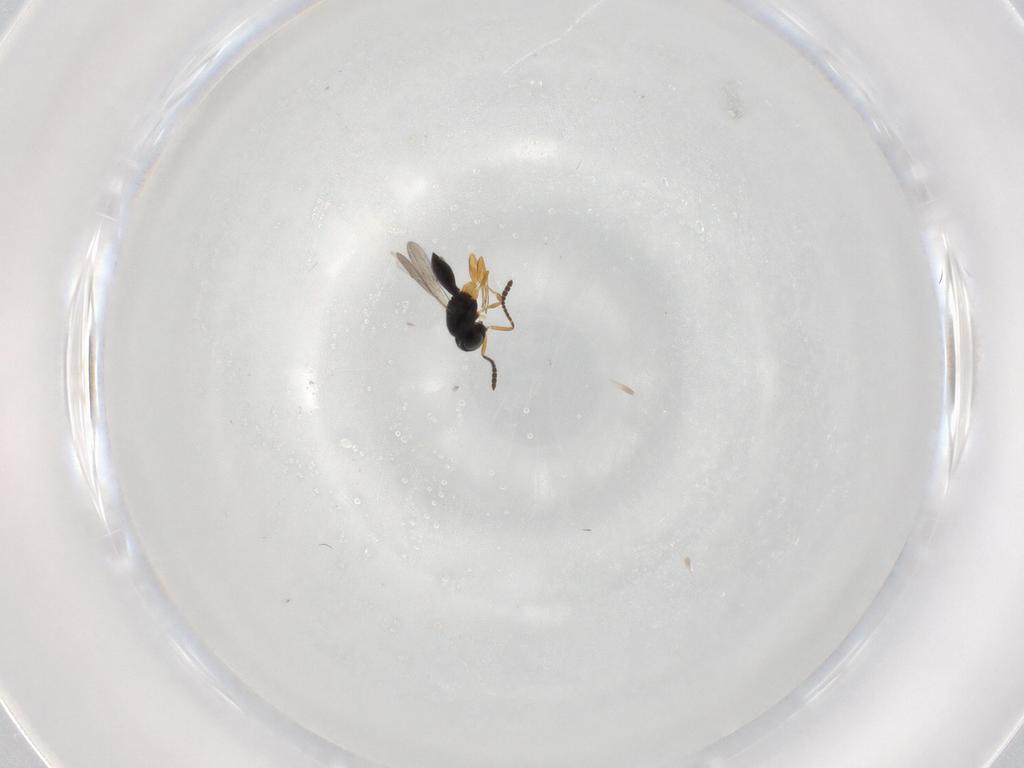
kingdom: Animalia
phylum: Arthropoda
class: Insecta
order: Hymenoptera
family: Scelionidae
